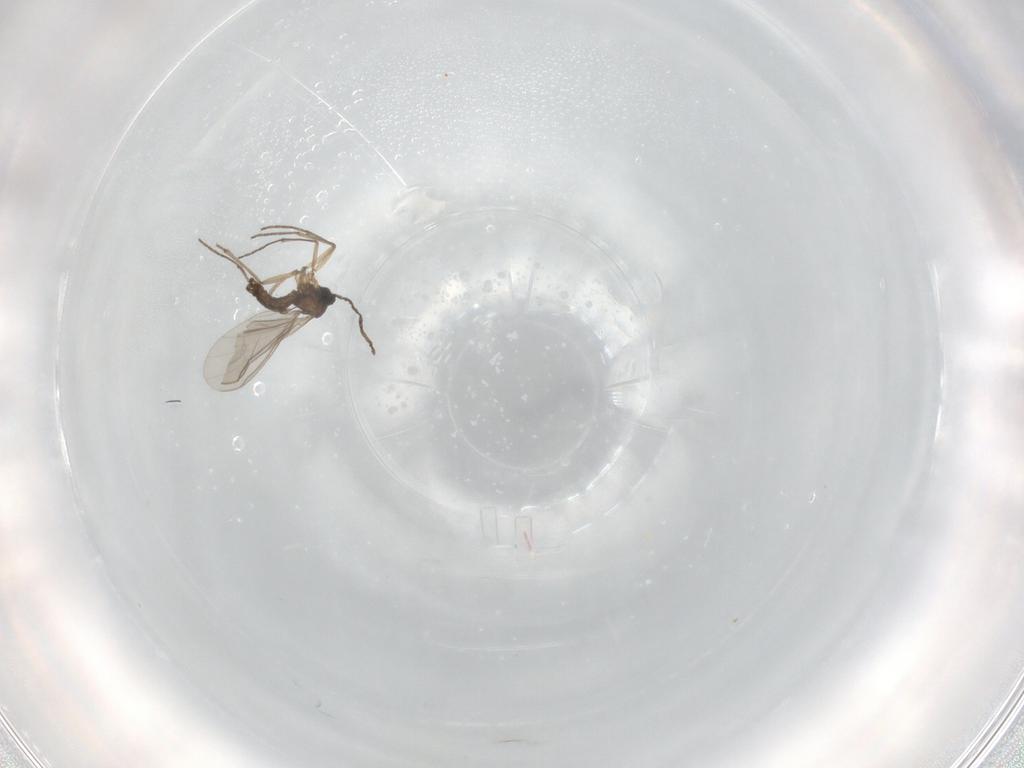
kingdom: Animalia
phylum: Arthropoda
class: Insecta
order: Diptera
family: Sciaridae
